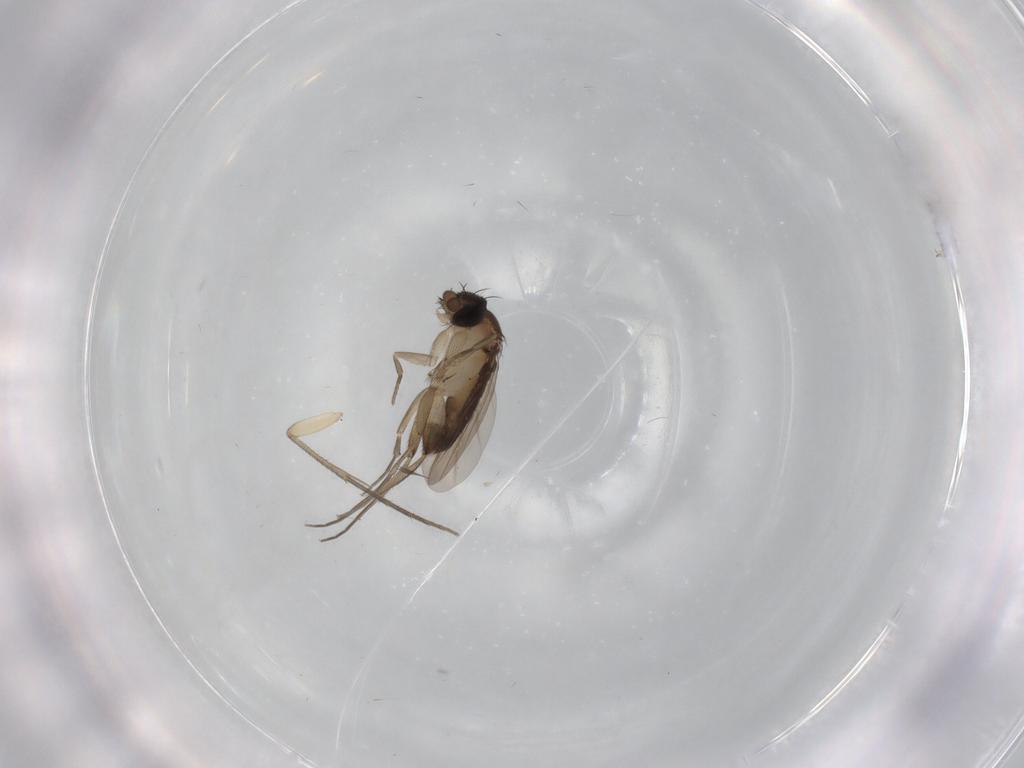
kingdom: Animalia
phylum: Arthropoda
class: Insecta
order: Diptera
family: Phoridae
